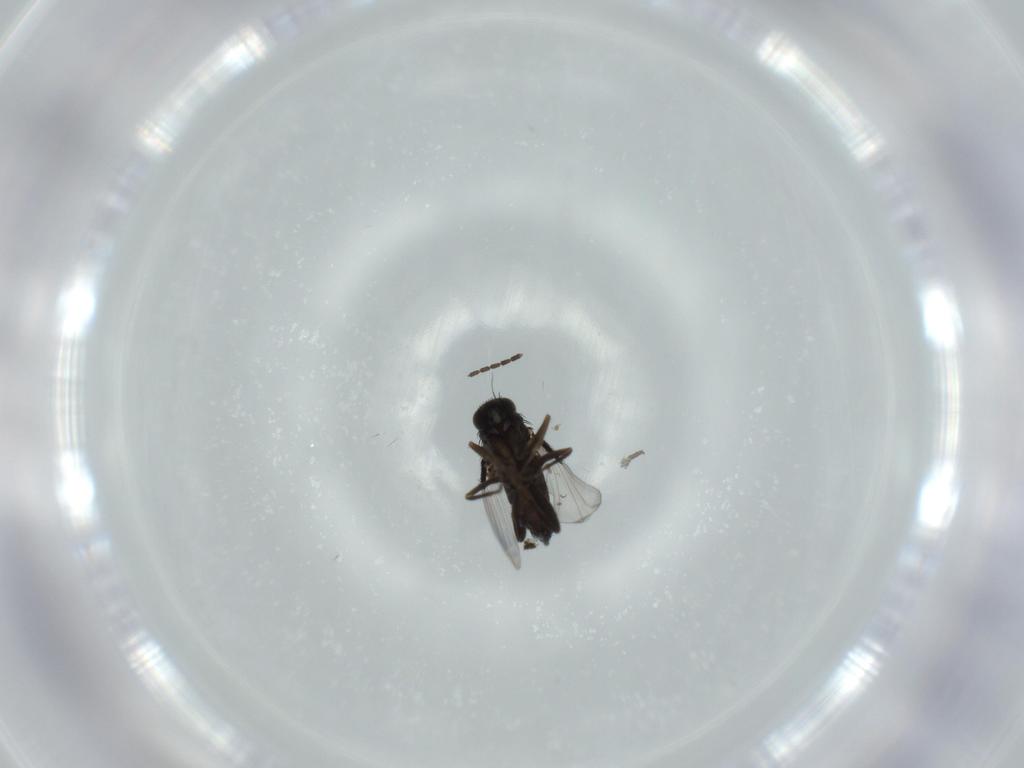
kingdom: Animalia
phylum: Arthropoda
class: Insecta
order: Diptera
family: Phoridae
